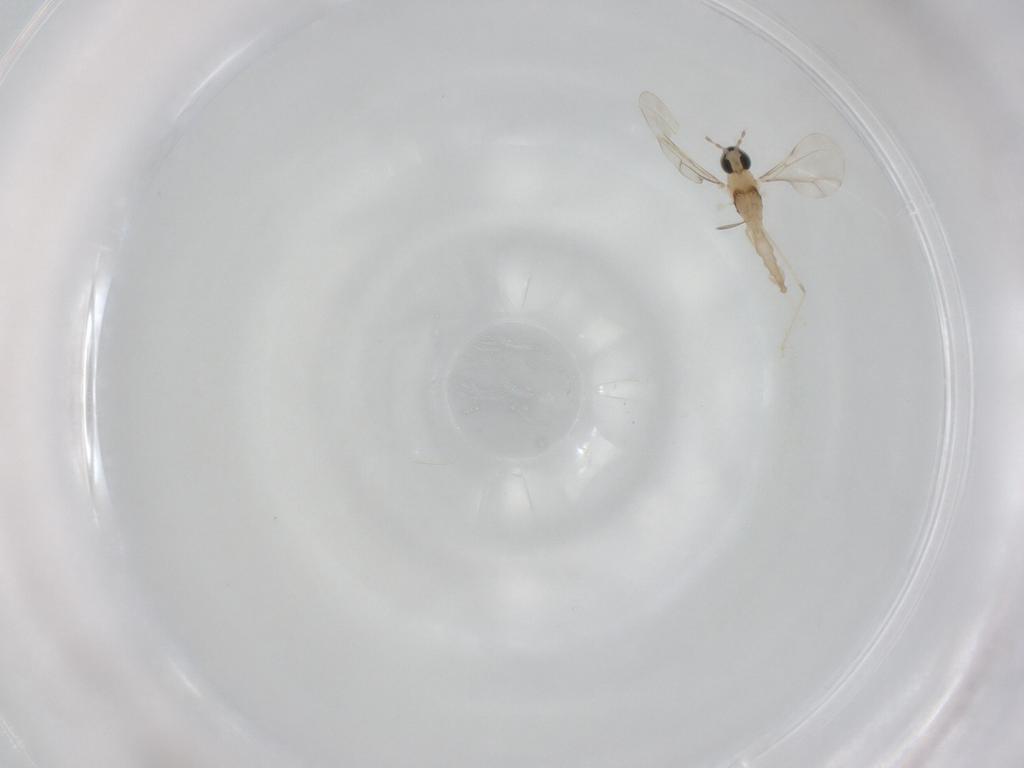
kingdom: Animalia
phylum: Arthropoda
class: Insecta
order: Diptera
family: Cecidomyiidae
